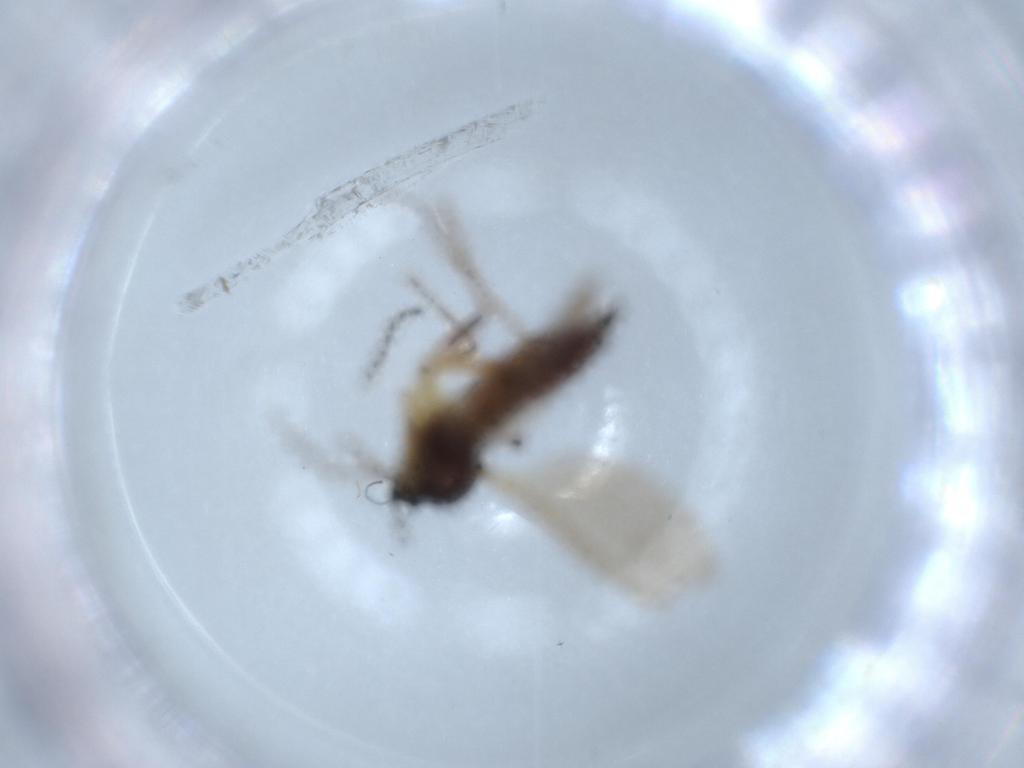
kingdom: Animalia
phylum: Arthropoda
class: Insecta
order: Diptera
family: Sciaridae
